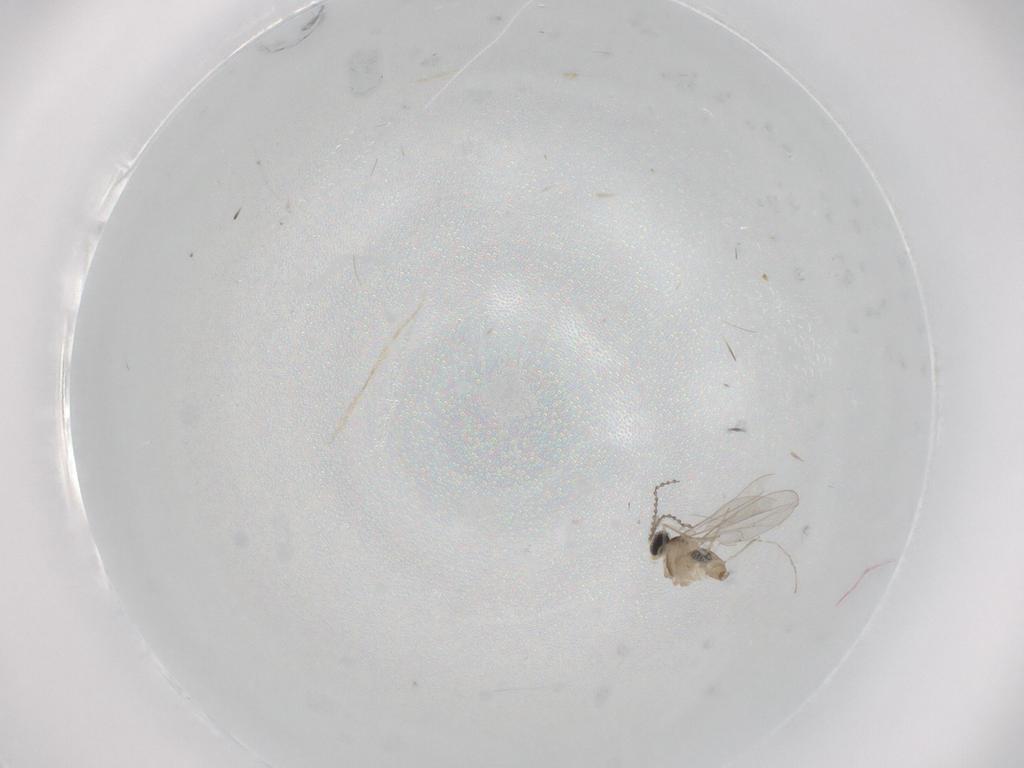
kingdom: Animalia
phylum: Arthropoda
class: Insecta
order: Diptera
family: Cecidomyiidae
